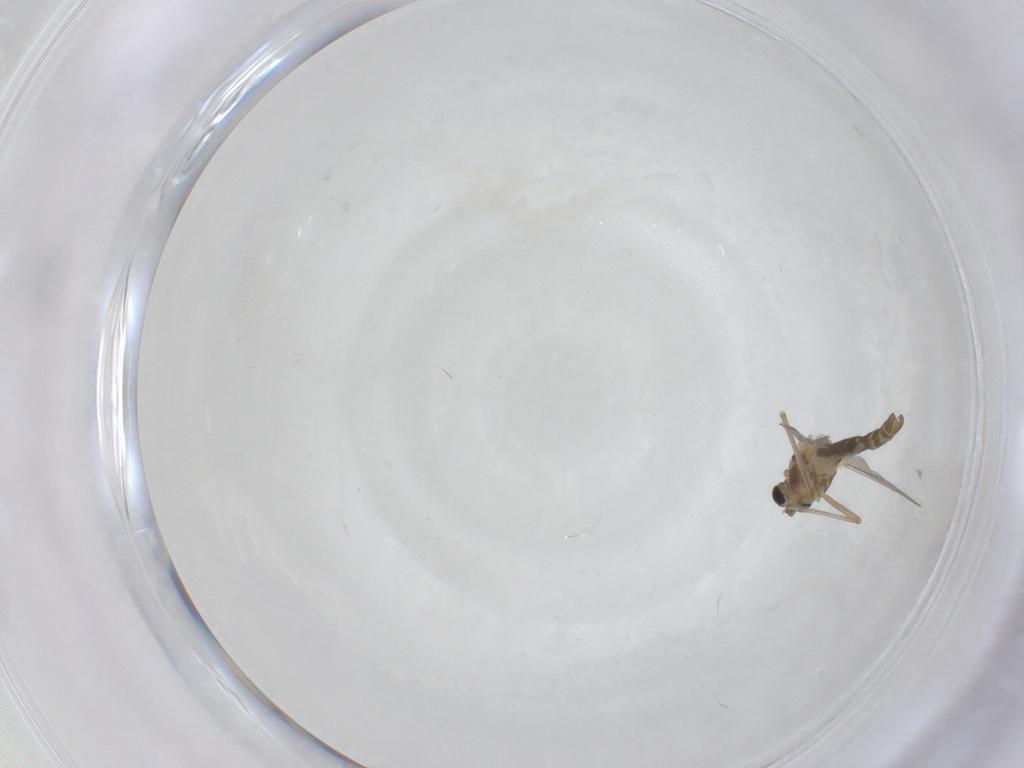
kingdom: Animalia
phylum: Arthropoda
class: Insecta
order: Diptera
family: Chironomidae
